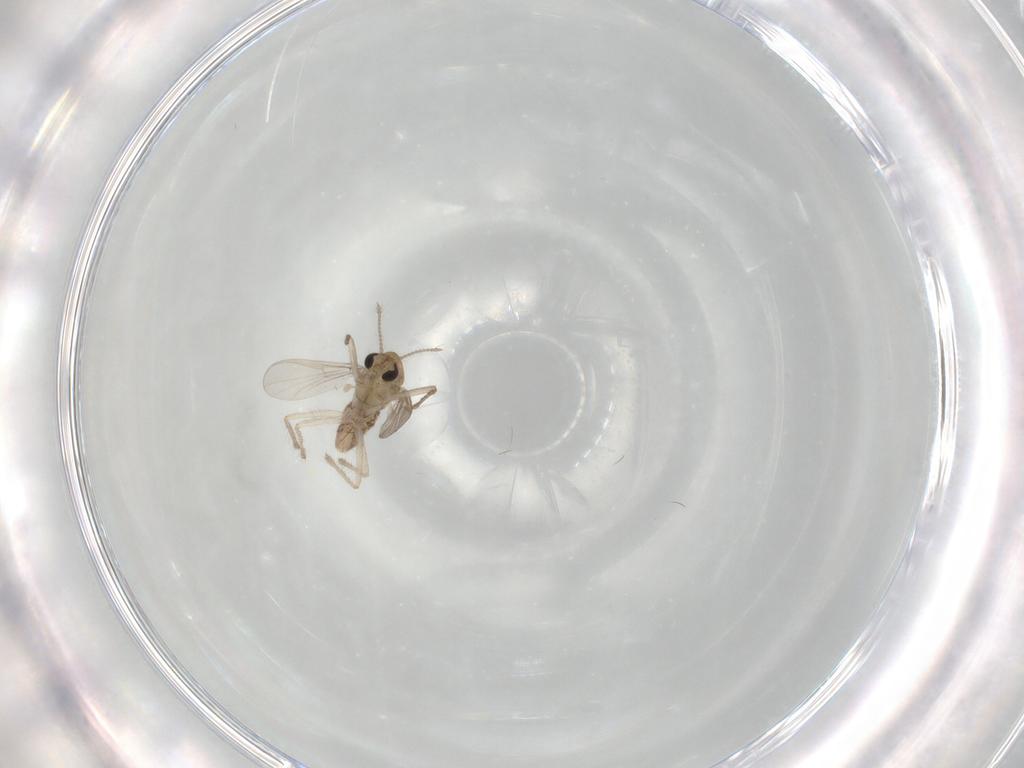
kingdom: Animalia
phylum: Arthropoda
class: Insecta
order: Diptera
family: Chironomidae
